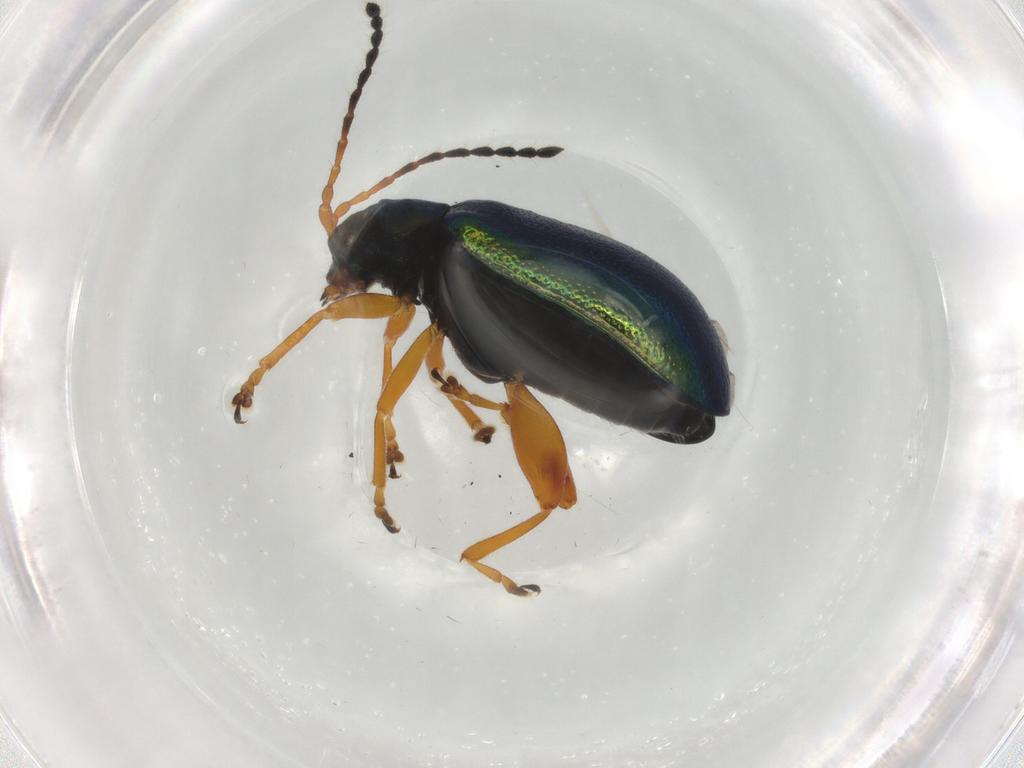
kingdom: Animalia
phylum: Arthropoda
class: Insecta
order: Coleoptera
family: Chrysomelidae
